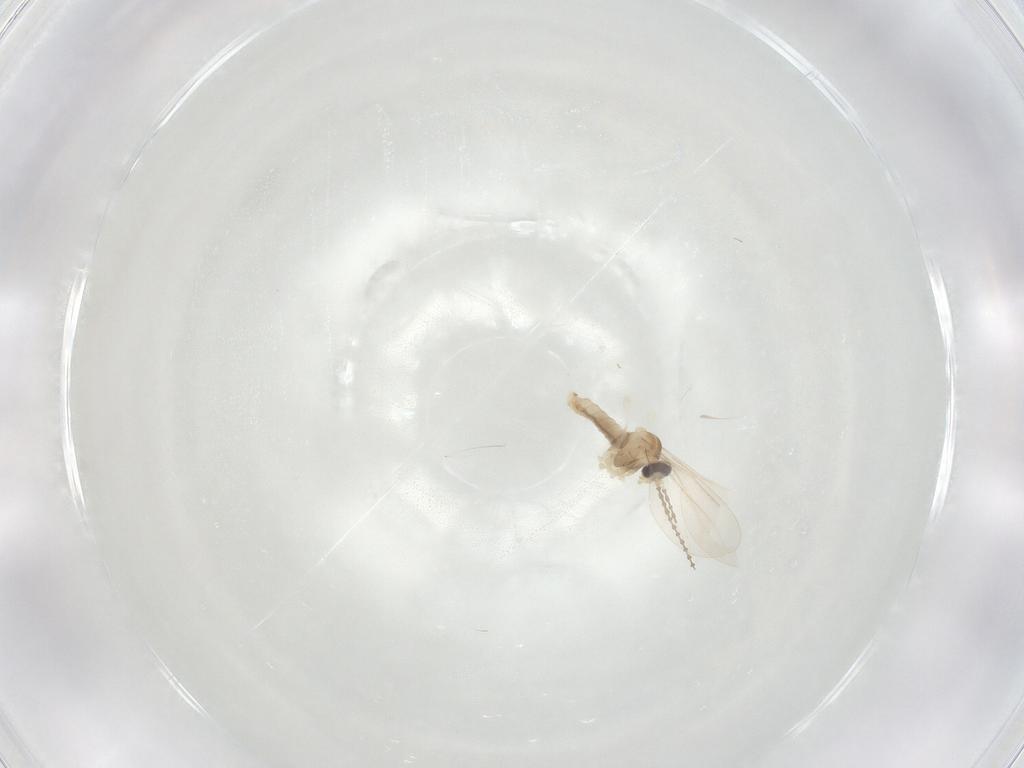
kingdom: Animalia
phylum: Arthropoda
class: Insecta
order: Diptera
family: Cecidomyiidae
